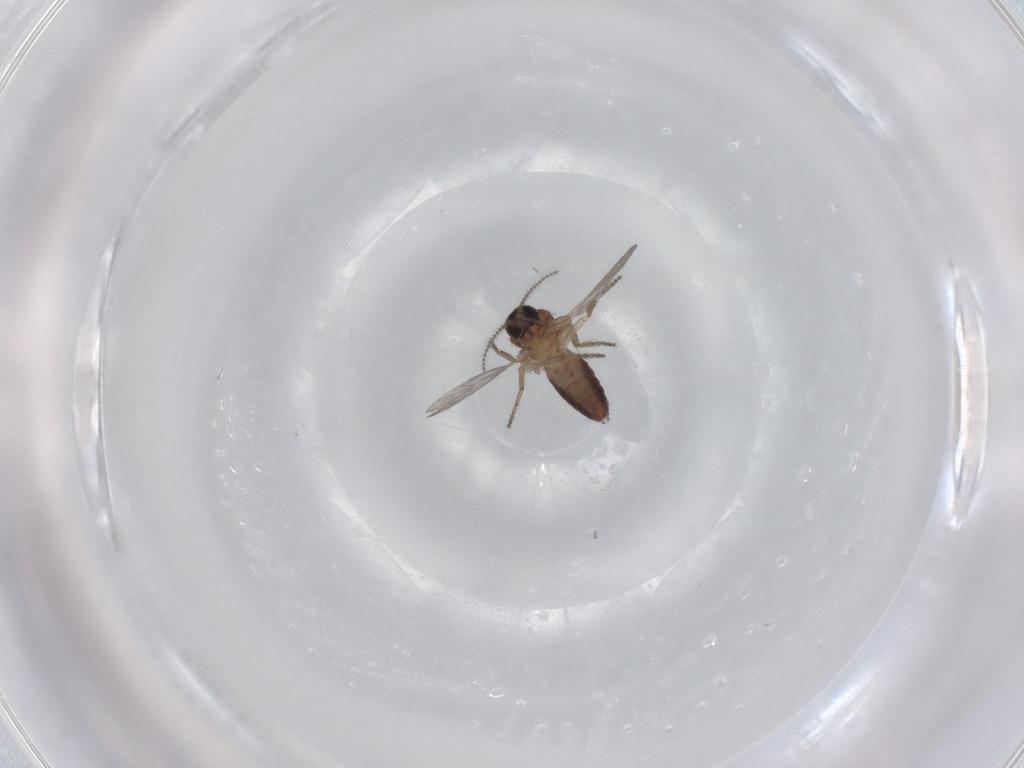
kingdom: Animalia
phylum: Arthropoda
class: Insecta
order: Diptera
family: Ceratopogonidae
